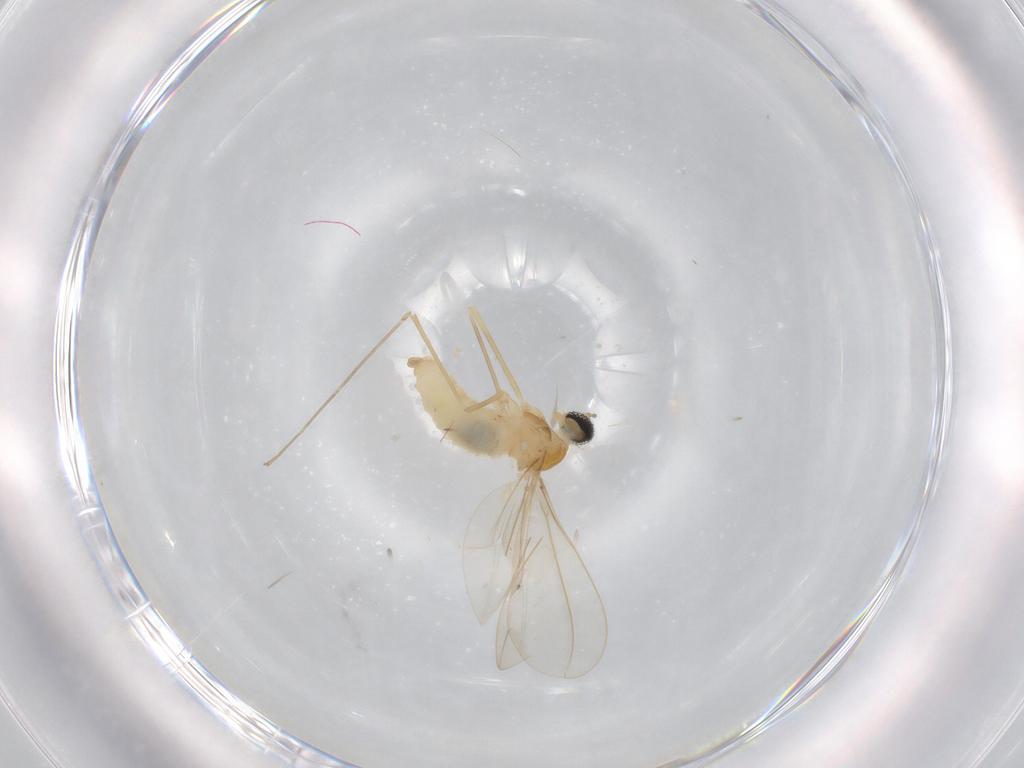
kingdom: Animalia
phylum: Arthropoda
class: Insecta
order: Diptera
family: Cecidomyiidae
